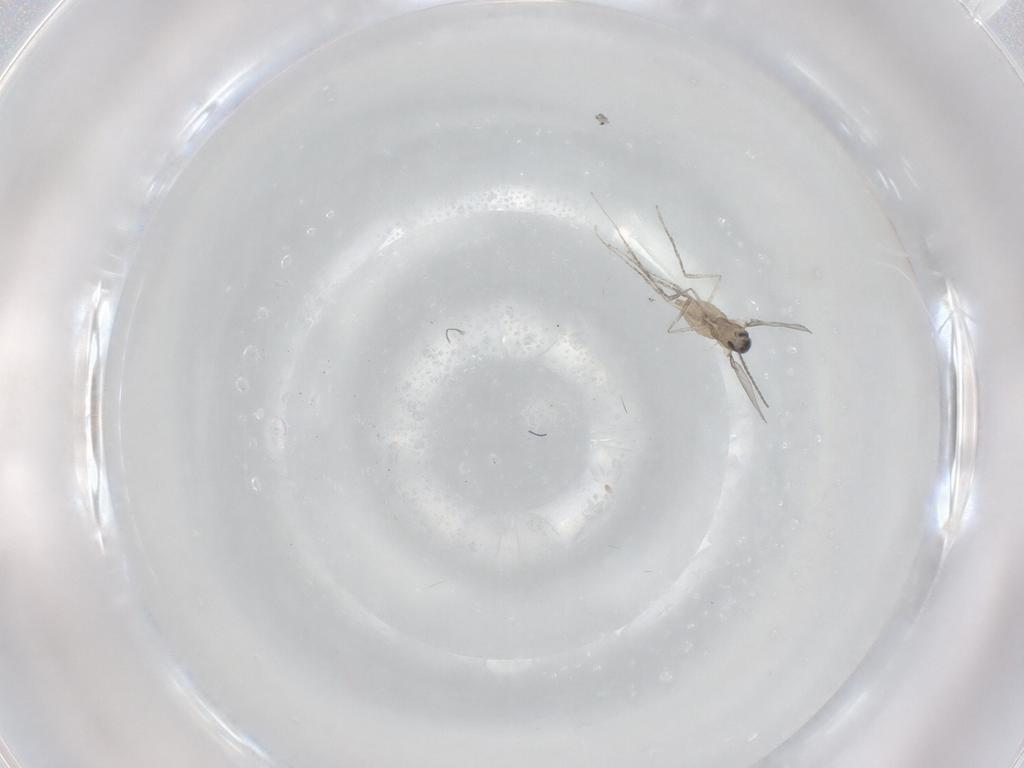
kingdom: Animalia
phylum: Arthropoda
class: Insecta
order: Diptera
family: Cecidomyiidae
